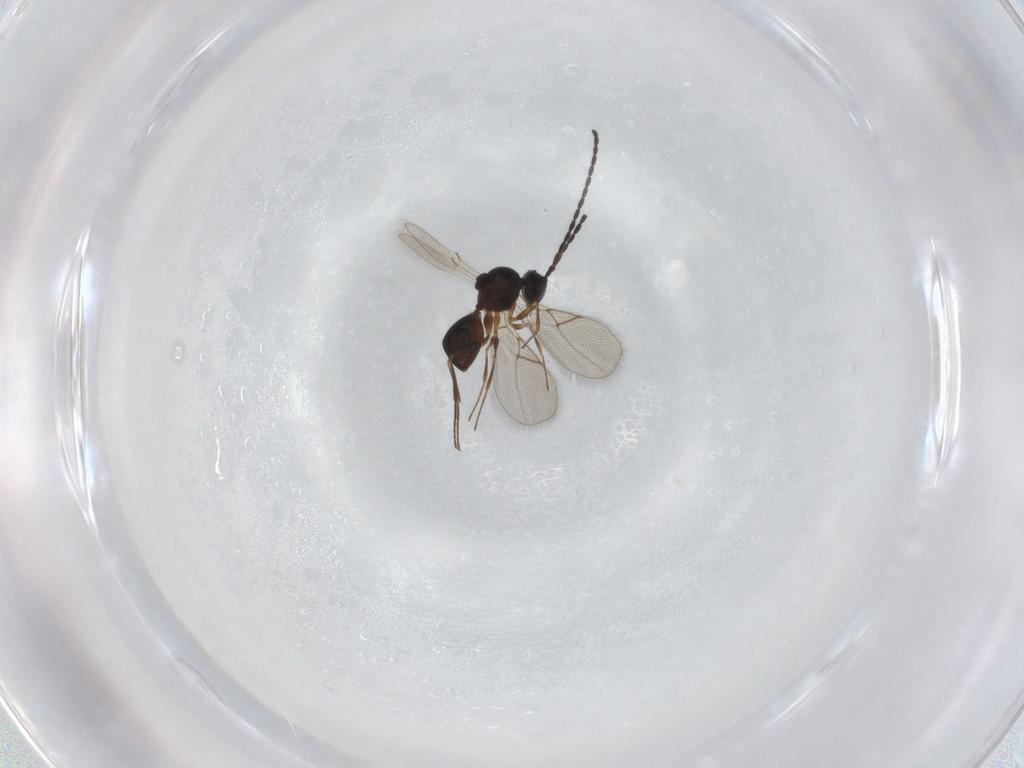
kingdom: Animalia
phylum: Arthropoda
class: Insecta
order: Hymenoptera
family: Figitidae
